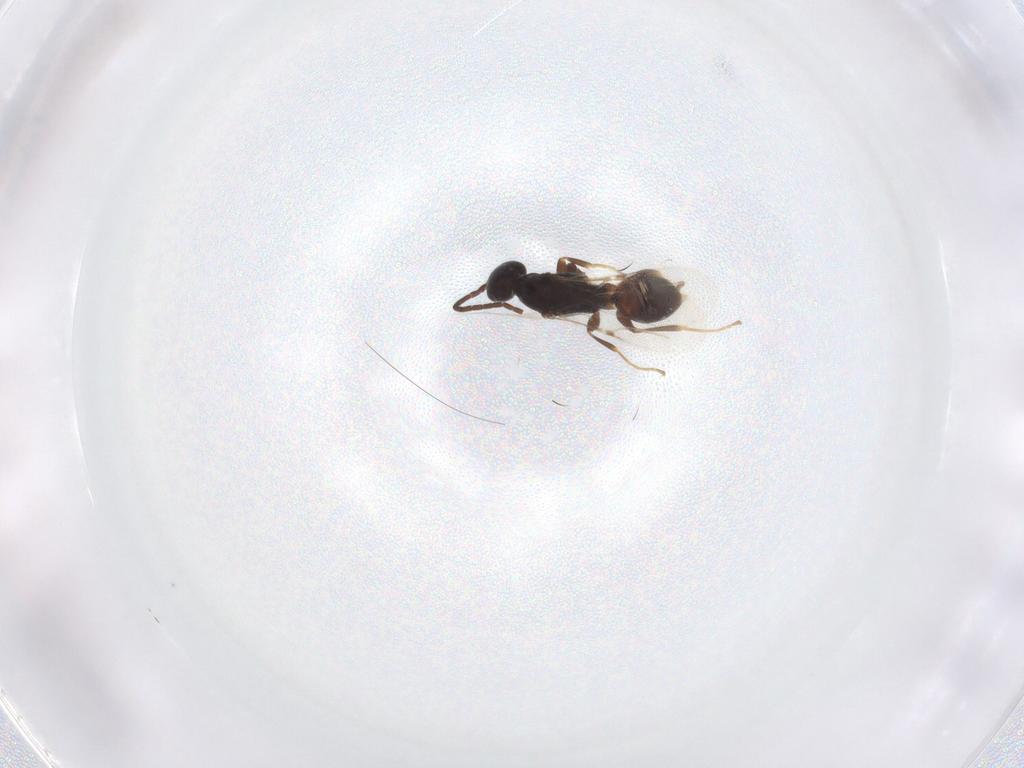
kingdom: Animalia
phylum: Arthropoda
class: Insecta
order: Hymenoptera
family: Bethylidae
